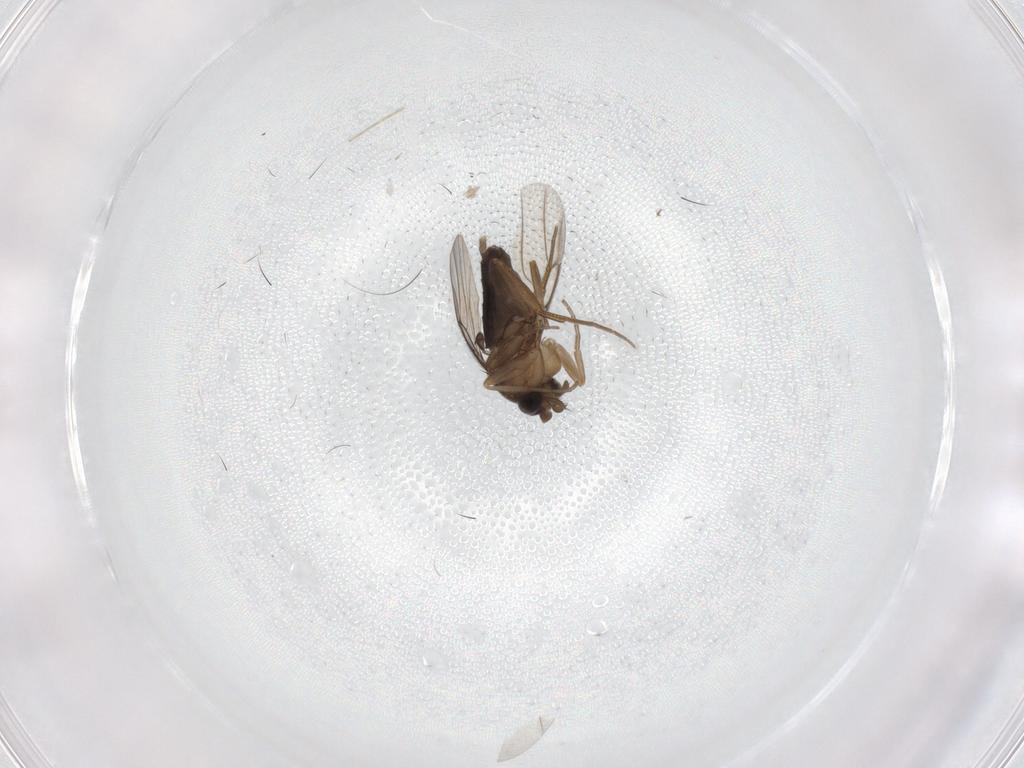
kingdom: Animalia
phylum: Arthropoda
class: Insecta
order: Diptera
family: Phoridae
